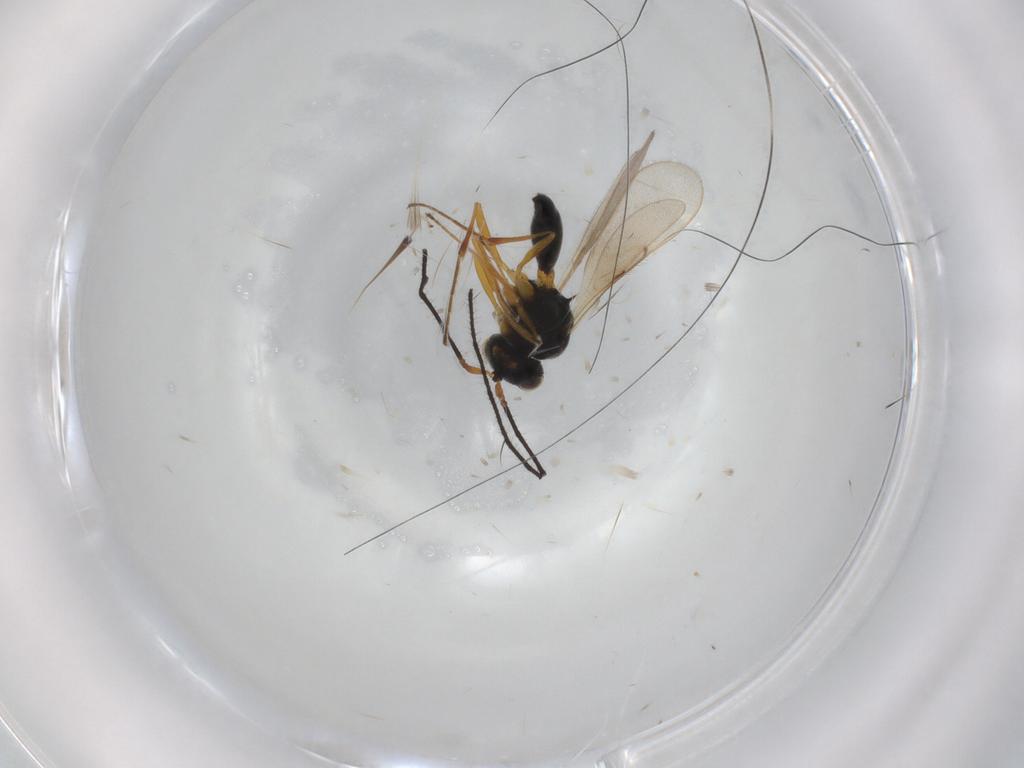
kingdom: Animalia
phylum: Arthropoda
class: Insecta
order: Hymenoptera
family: Scelionidae
